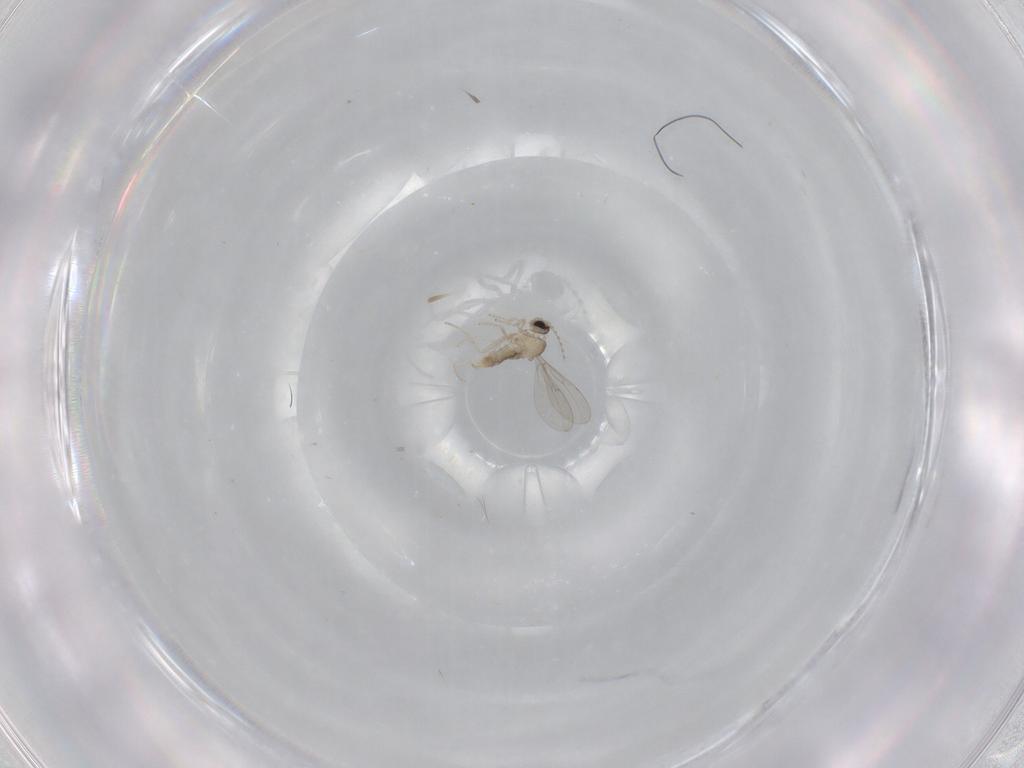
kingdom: Animalia
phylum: Arthropoda
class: Insecta
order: Diptera
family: Cecidomyiidae
